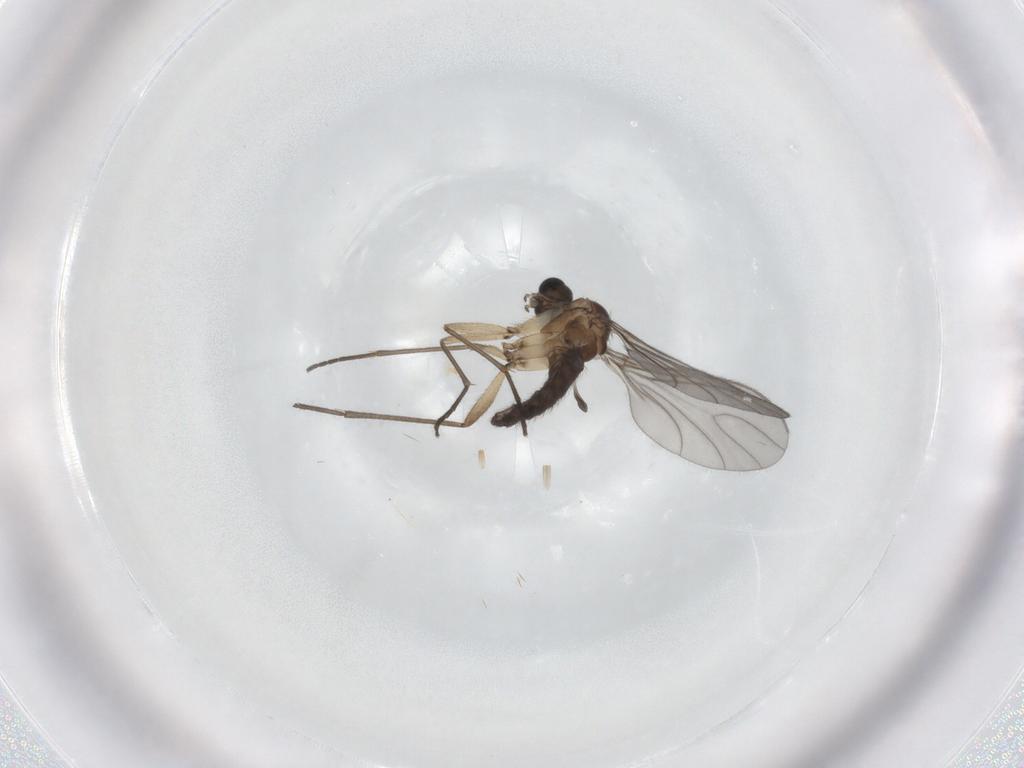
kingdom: Animalia
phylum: Arthropoda
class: Insecta
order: Diptera
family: Sciaridae
